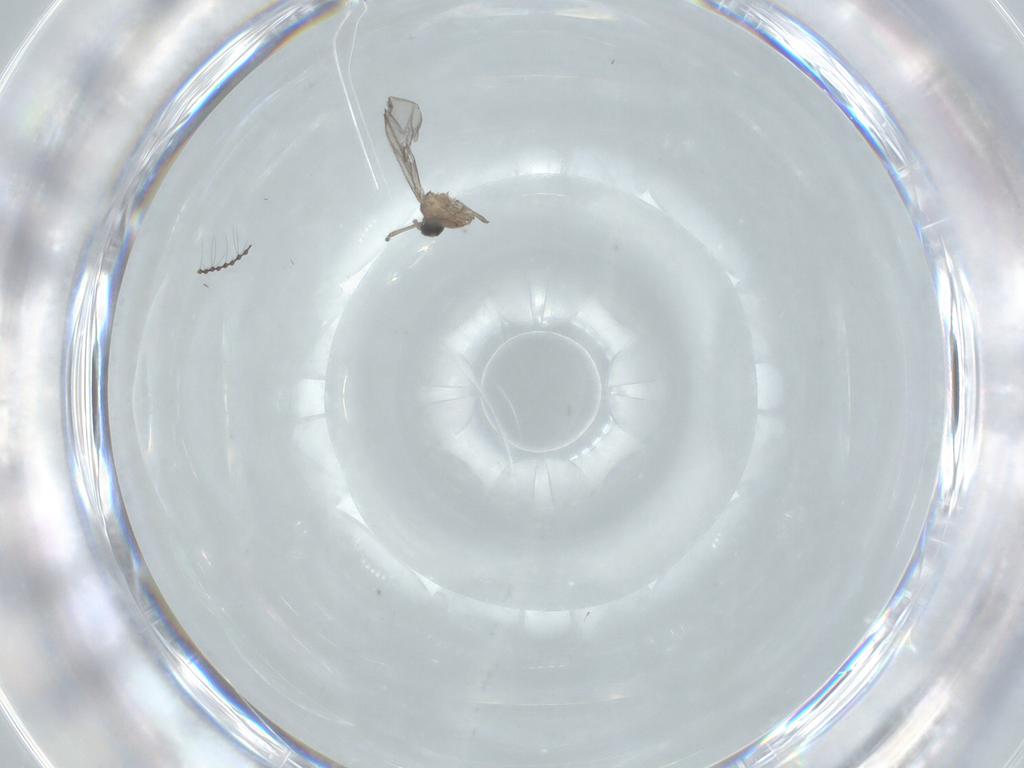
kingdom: Animalia
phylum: Arthropoda
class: Insecta
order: Diptera
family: Sciaridae
